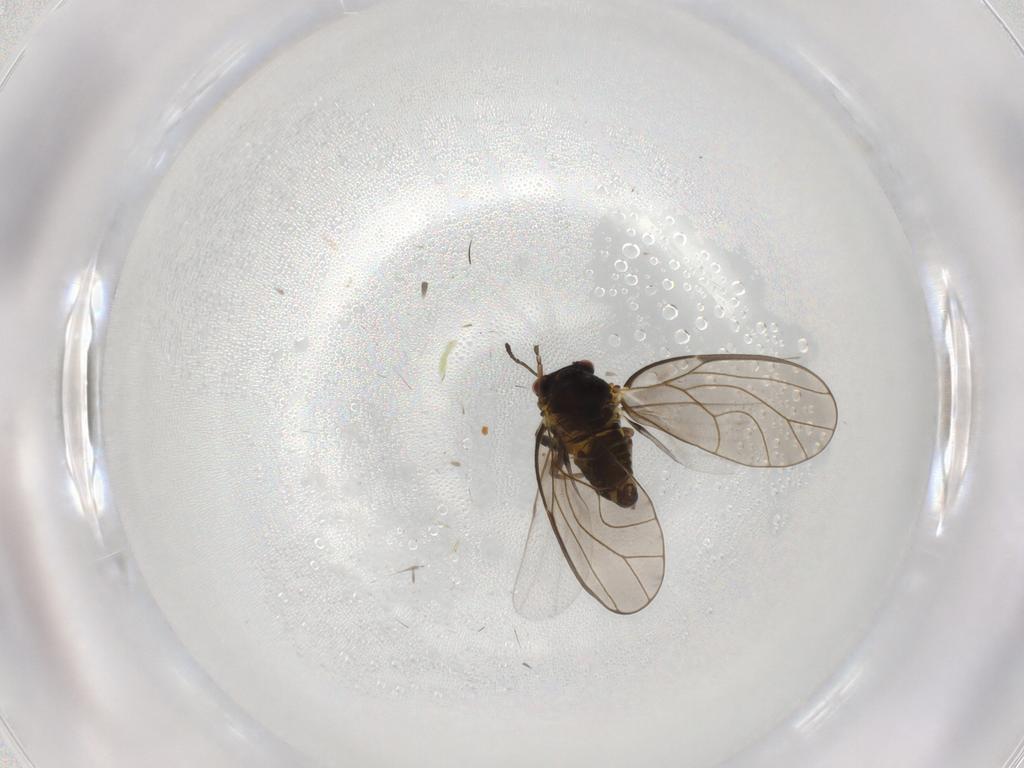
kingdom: Animalia
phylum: Arthropoda
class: Insecta
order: Hemiptera
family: Psylloidea_incertae_sedis
